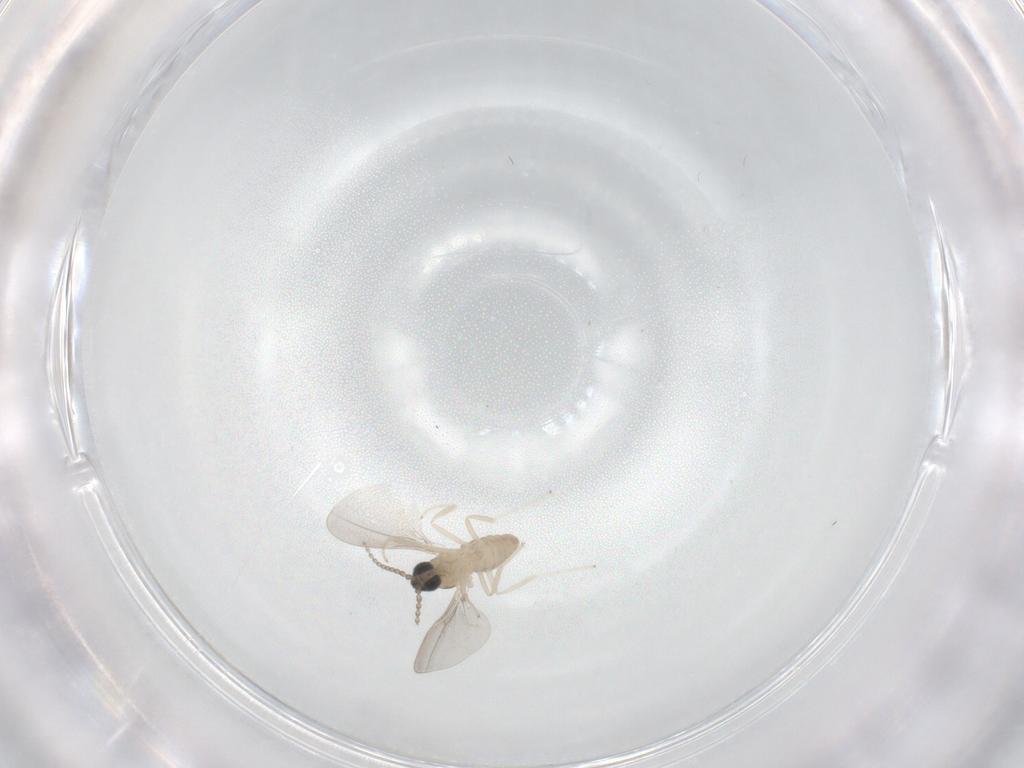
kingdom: Animalia
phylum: Arthropoda
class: Insecta
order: Diptera
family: Cecidomyiidae
